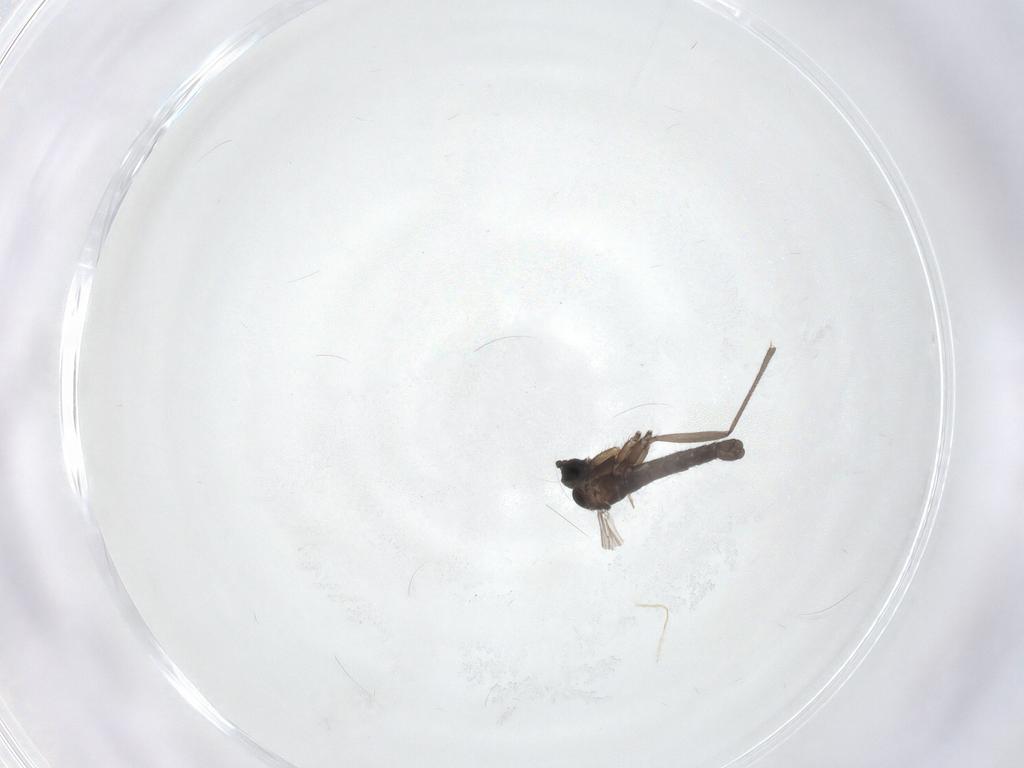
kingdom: Animalia
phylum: Arthropoda
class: Insecta
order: Diptera
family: Sciaridae
